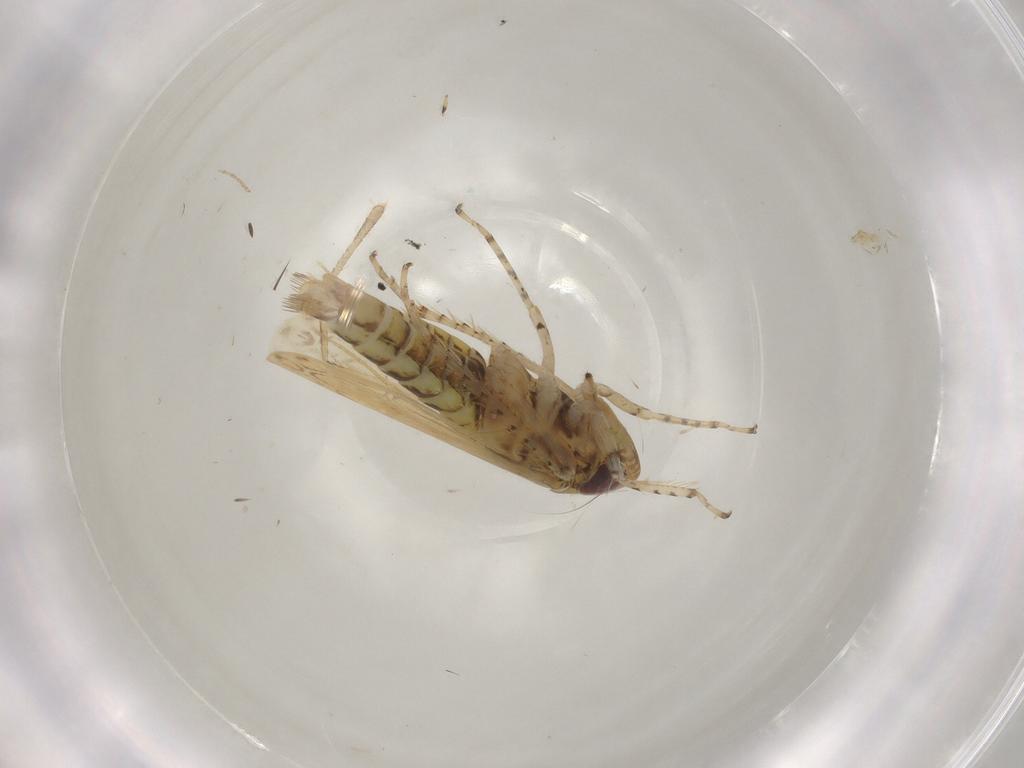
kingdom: Animalia
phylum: Arthropoda
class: Insecta
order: Hemiptera
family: Cicadellidae
